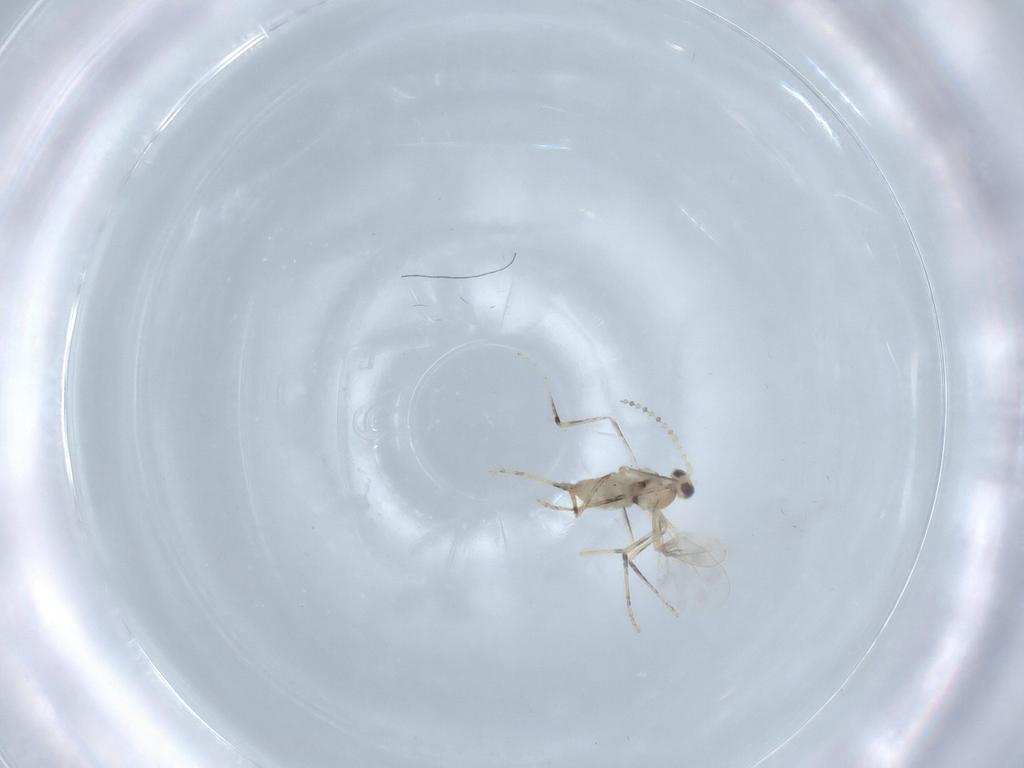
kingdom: Animalia
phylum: Arthropoda
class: Insecta
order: Diptera
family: Cecidomyiidae
